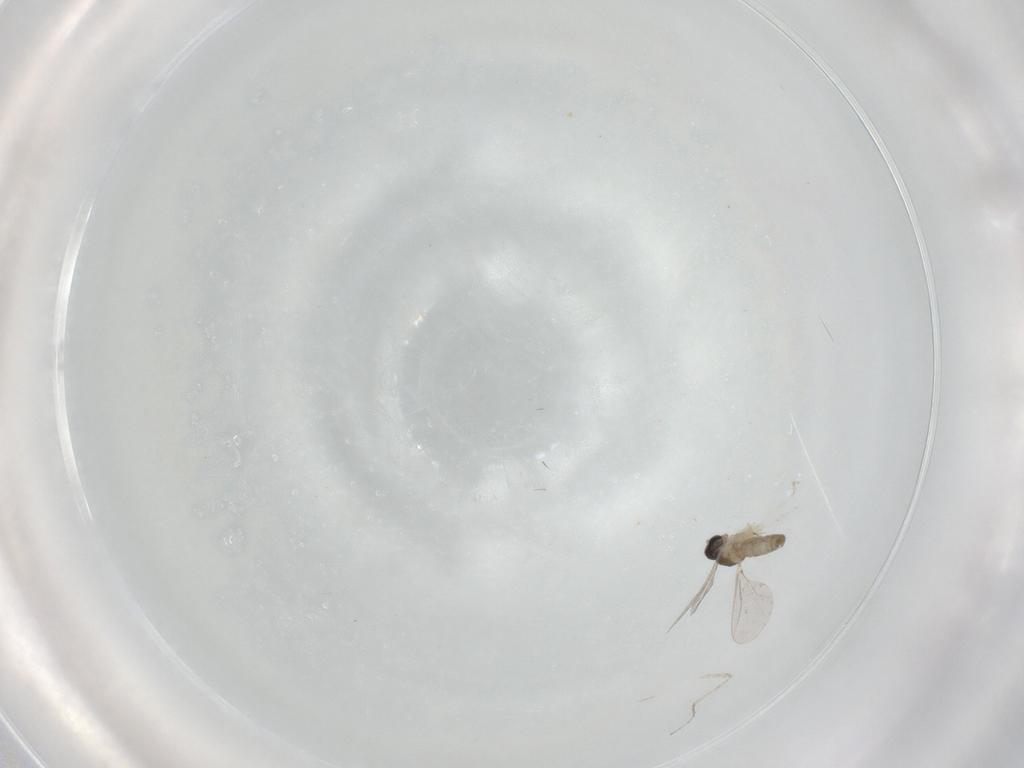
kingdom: Animalia
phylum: Arthropoda
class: Insecta
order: Diptera
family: Cecidomyiidae
